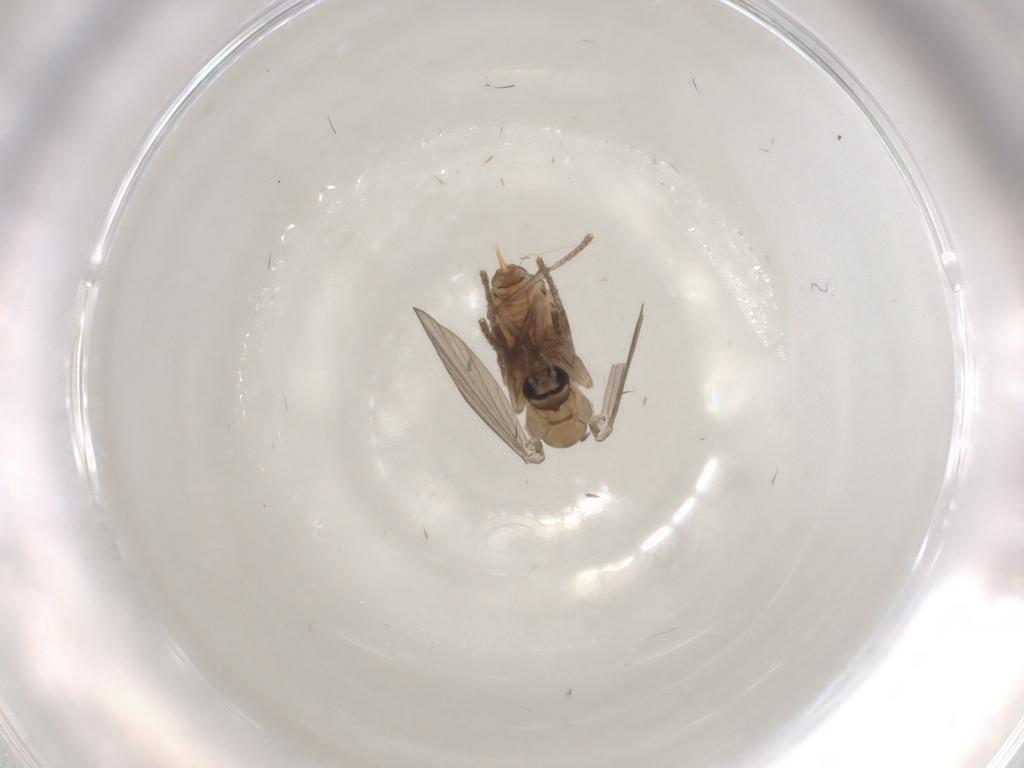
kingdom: Animalia
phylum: Arthropoda
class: Insecta
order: Diptera
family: Psychodidae
